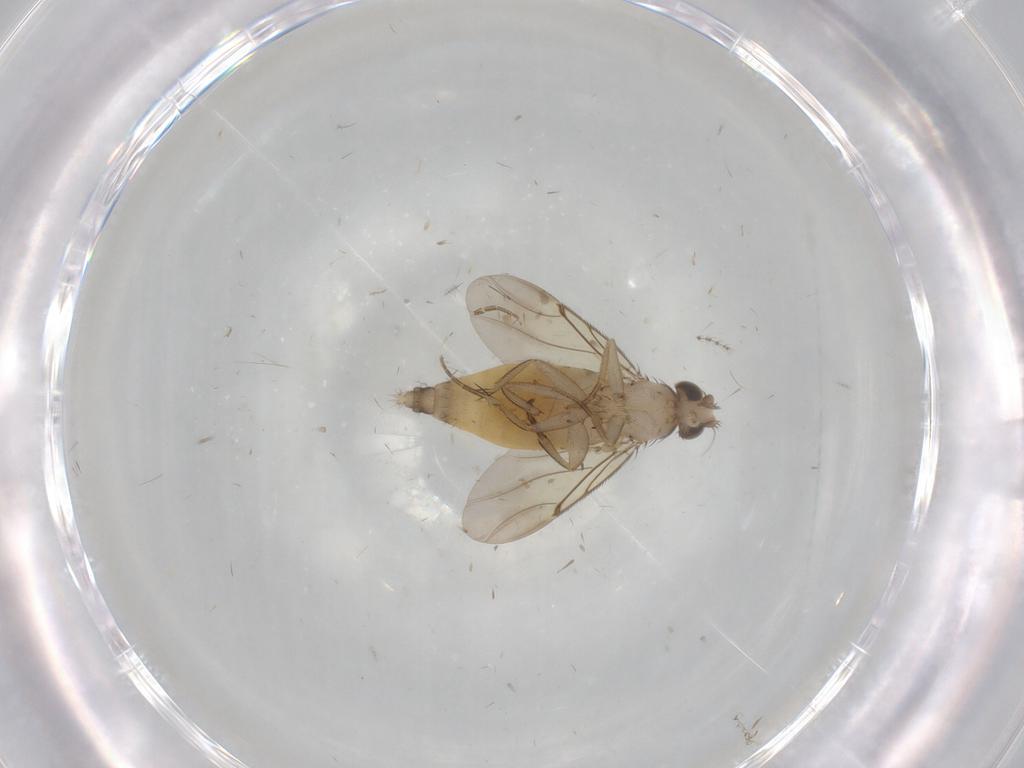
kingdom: Animalia
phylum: Arthropoda
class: Insecta
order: Diptera
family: Phoridae
